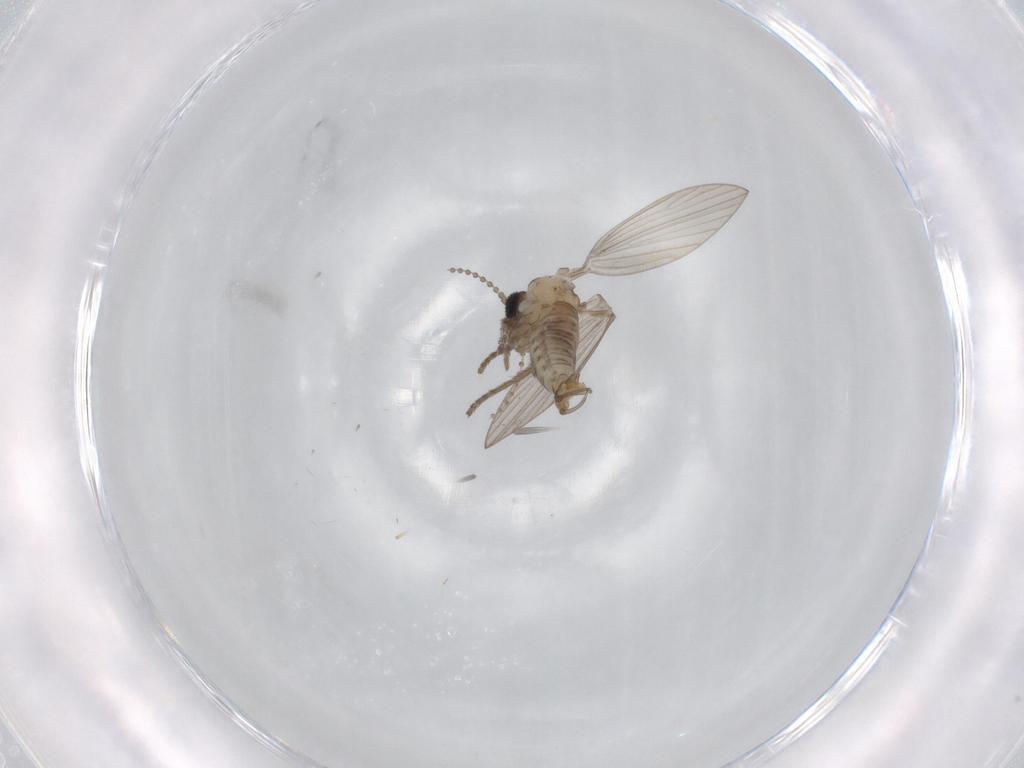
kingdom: Animalia
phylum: Arthropoda
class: Insecta
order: Diptera
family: Psychodidae
